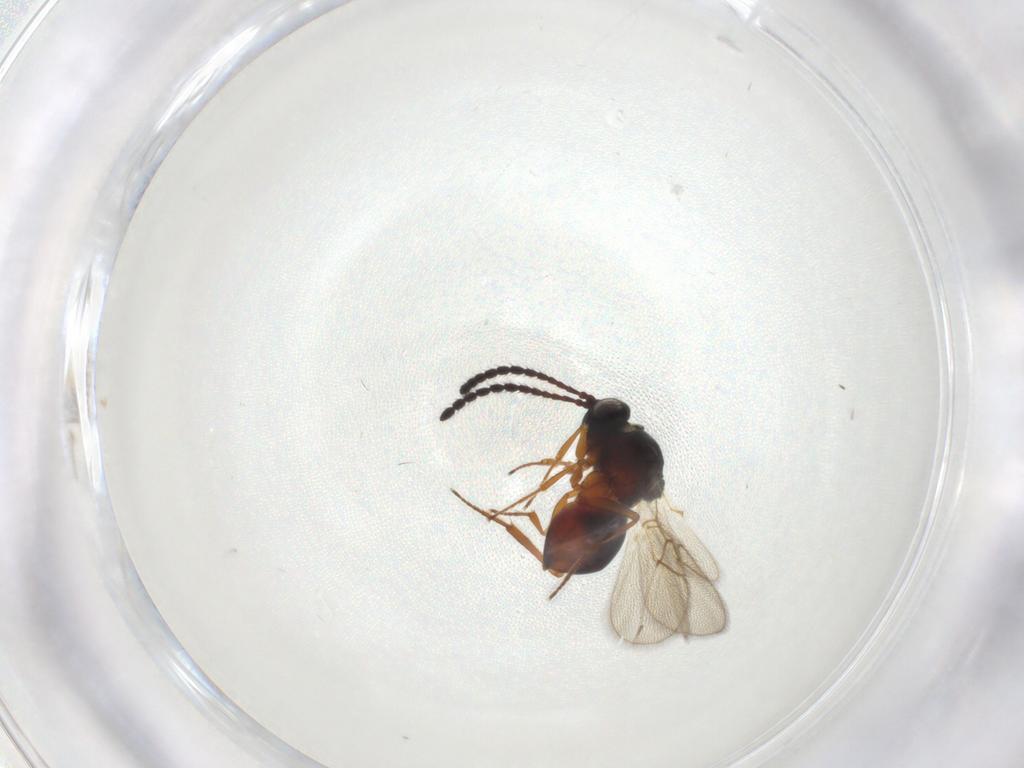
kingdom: Animalia
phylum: Arthropoda
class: Insecta
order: Hymenoptera
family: Figitidae
